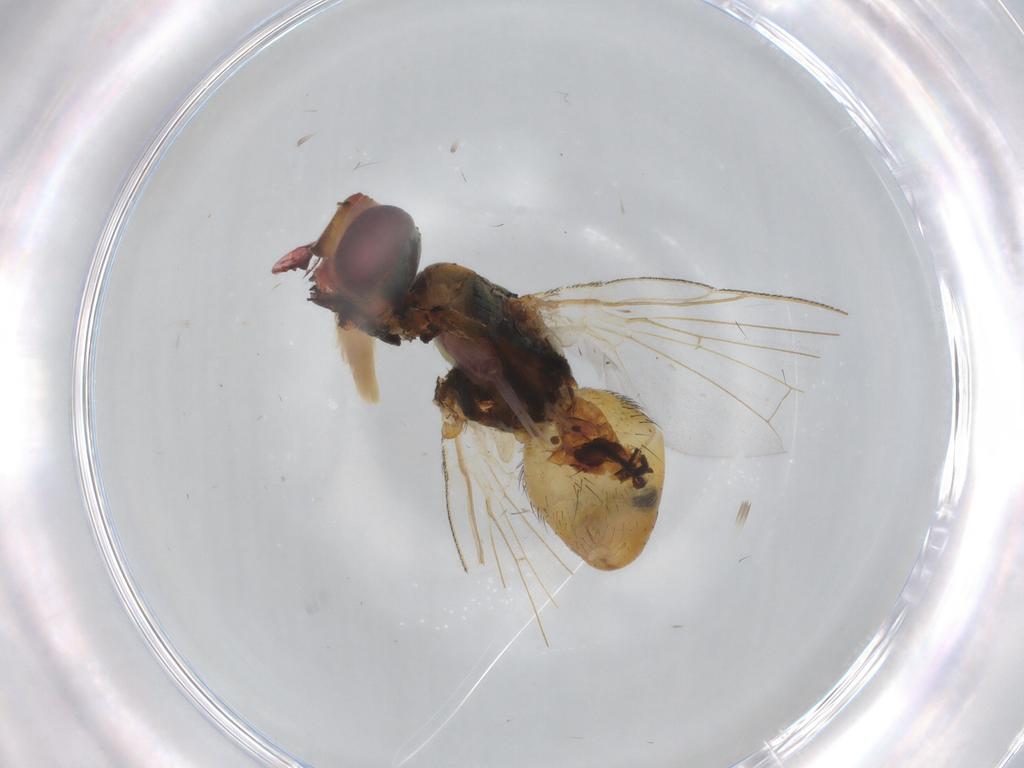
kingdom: Animalia
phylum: Arthropoda
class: Insecta
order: Diptera
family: Muscidae
